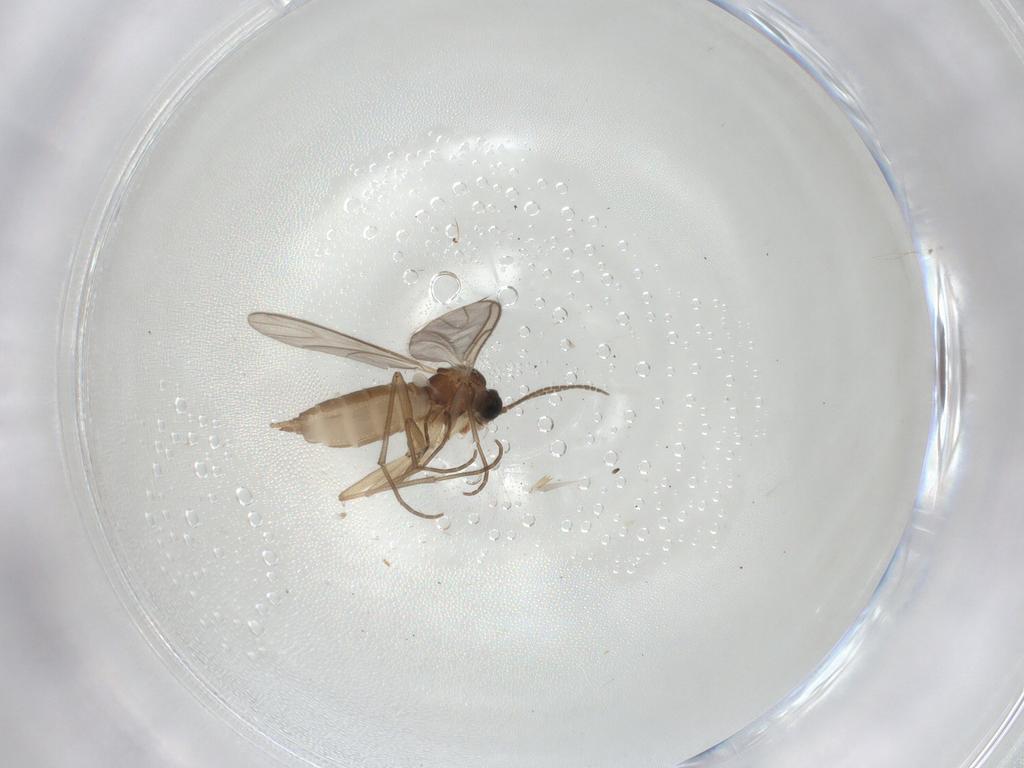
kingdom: Animalia
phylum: Arthropoda
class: Insecta
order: Diptera
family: Sciaridae
